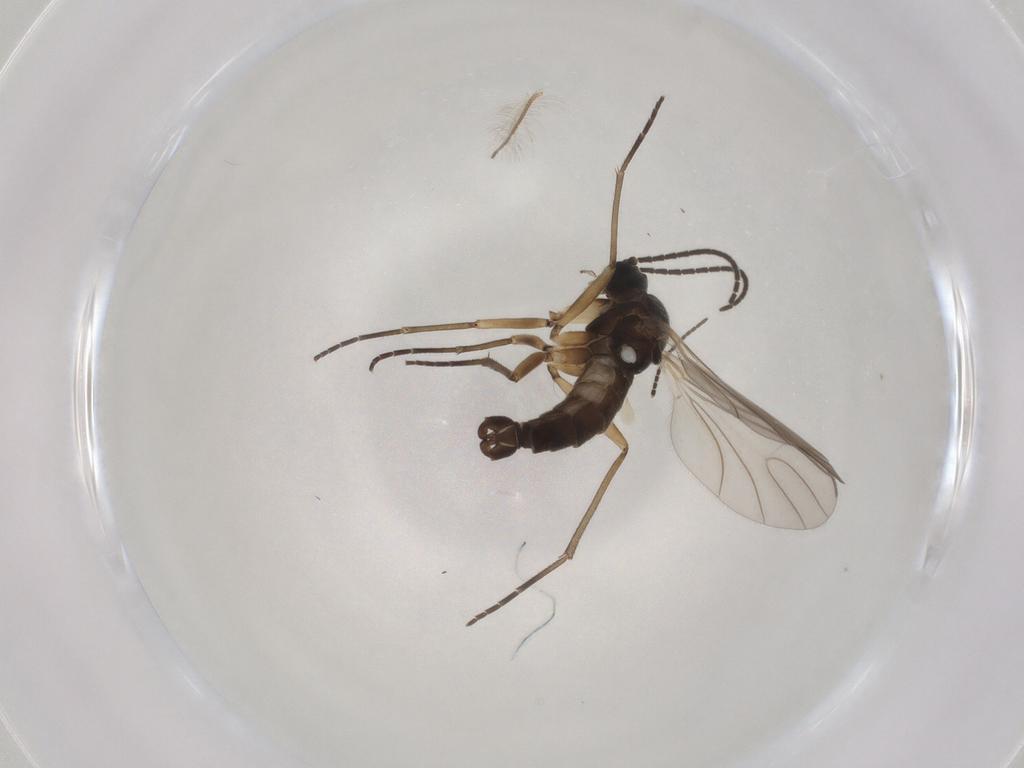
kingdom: Animalia
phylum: Arthropoda
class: Insecta
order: Diptera
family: Sciaridae
